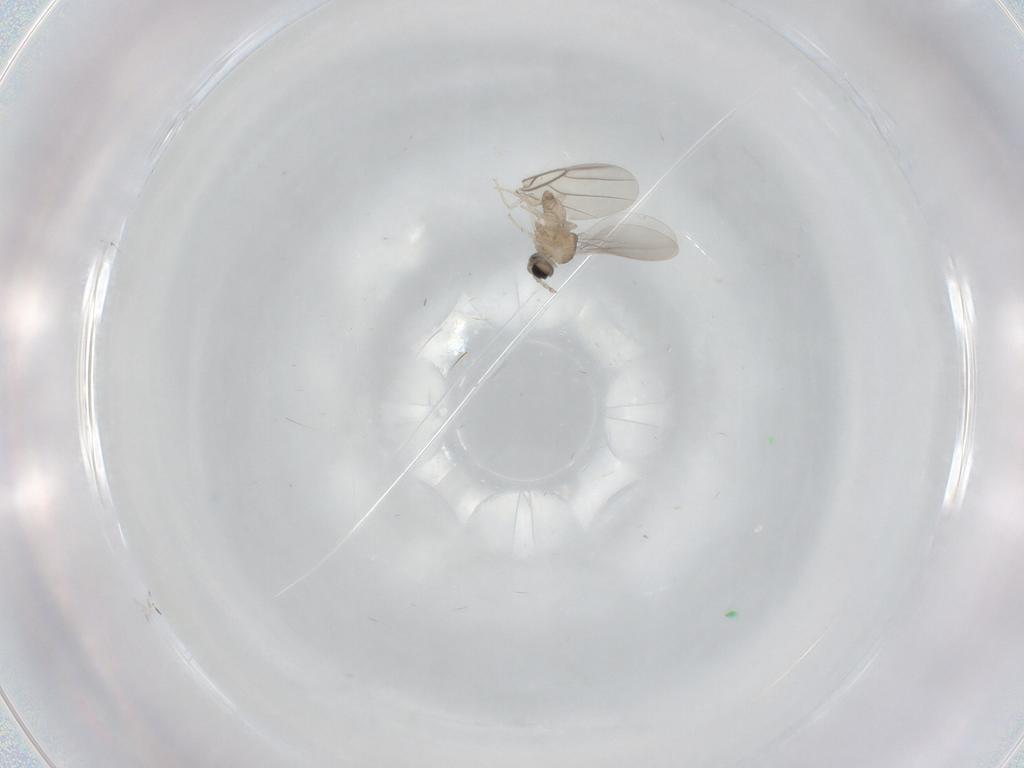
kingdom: Animalia
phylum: Arthropoda
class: Insecta
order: Diptera
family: Cecidomyiidae
